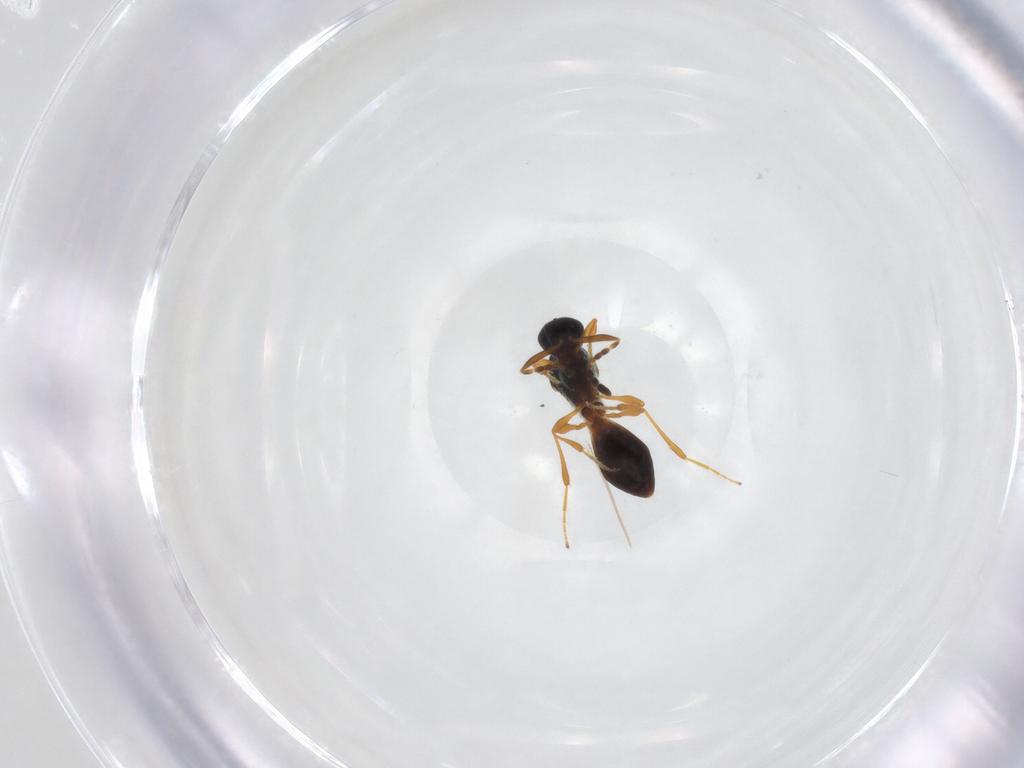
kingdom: Animalia
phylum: Arthropoda
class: Insecta
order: Hymenoptera
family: Platygastridae
